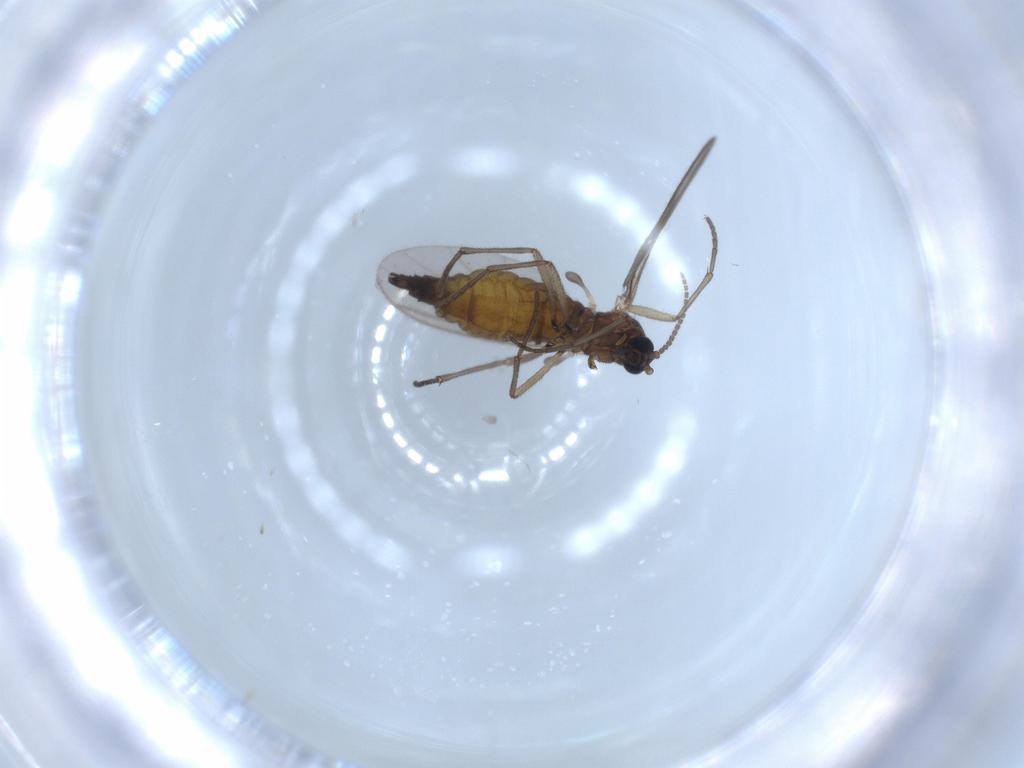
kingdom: Animalia
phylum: Arthropoda
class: Insecta
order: Diptera
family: Sciaridae
